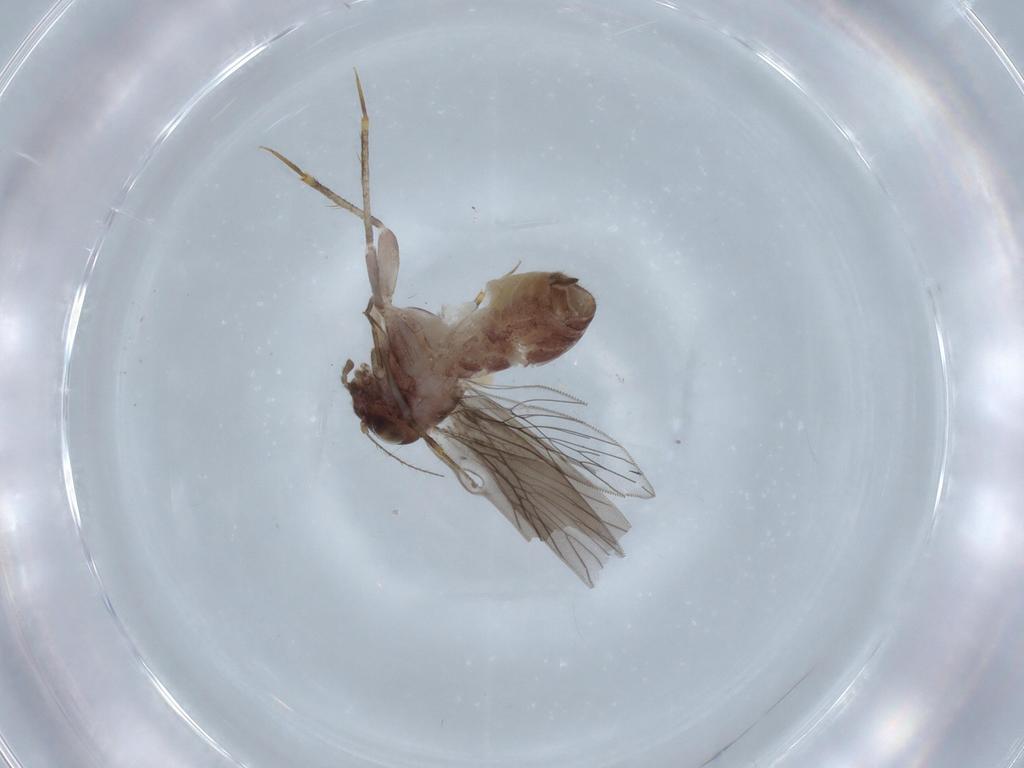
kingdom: Animalia
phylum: Arthropoda
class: Insecta
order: Psocodea
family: Lepidopsocidae
